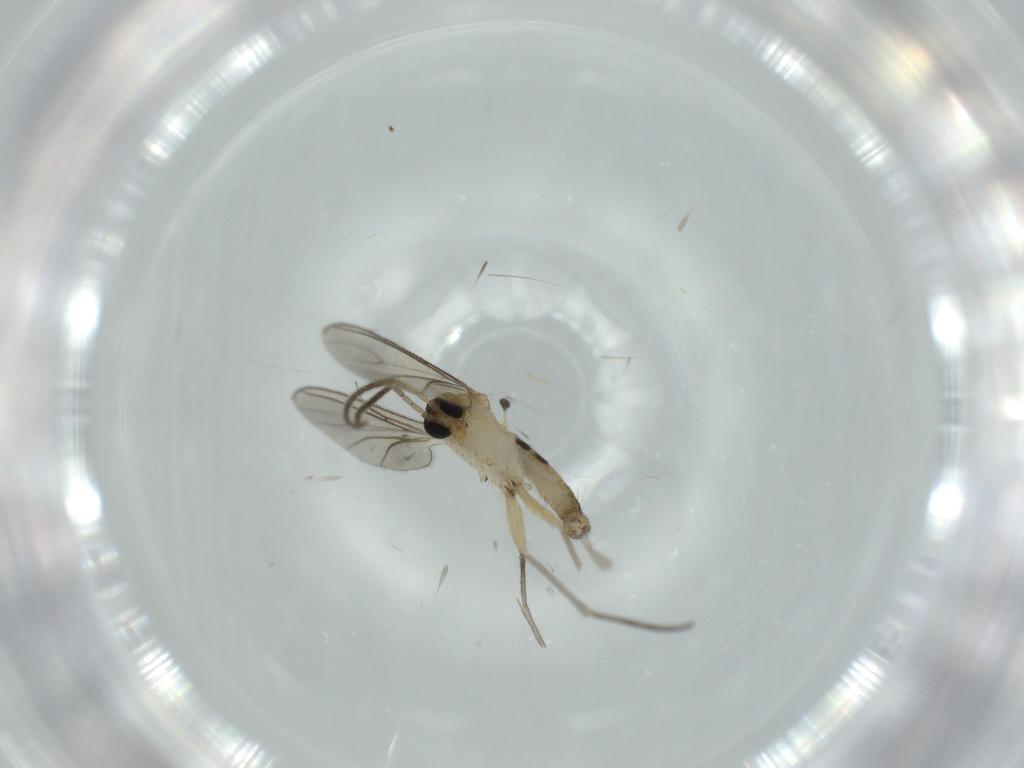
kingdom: Animalia
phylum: Arthropoda
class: Insecta
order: Diptera
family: Sciaridae
